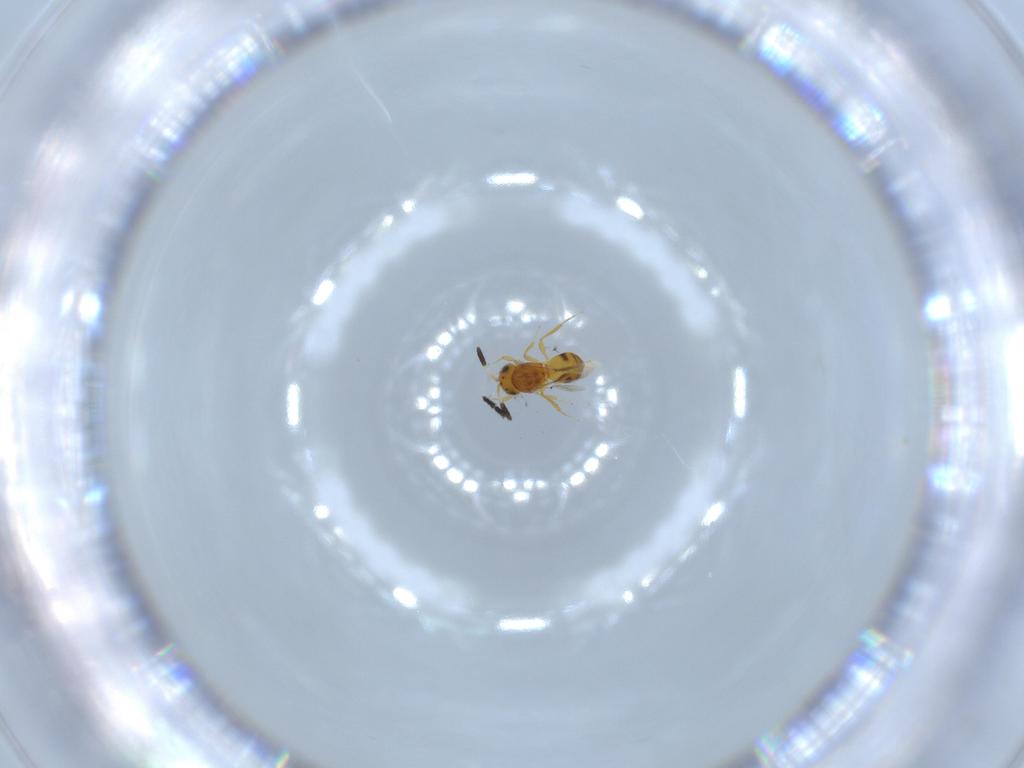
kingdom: Animalia
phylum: Arthropoda
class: Insecta
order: Hymenoptera
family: Scelionidae
